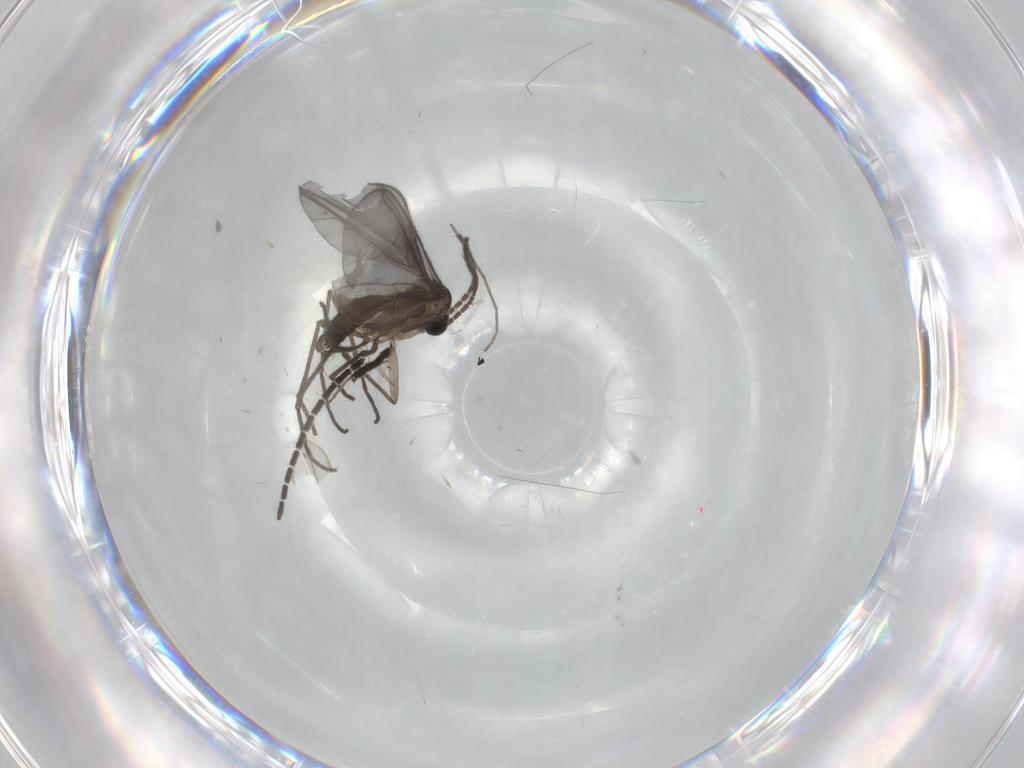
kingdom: Animalia
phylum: Arthropoda
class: Insecta
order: Diptera
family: Sciaridae
